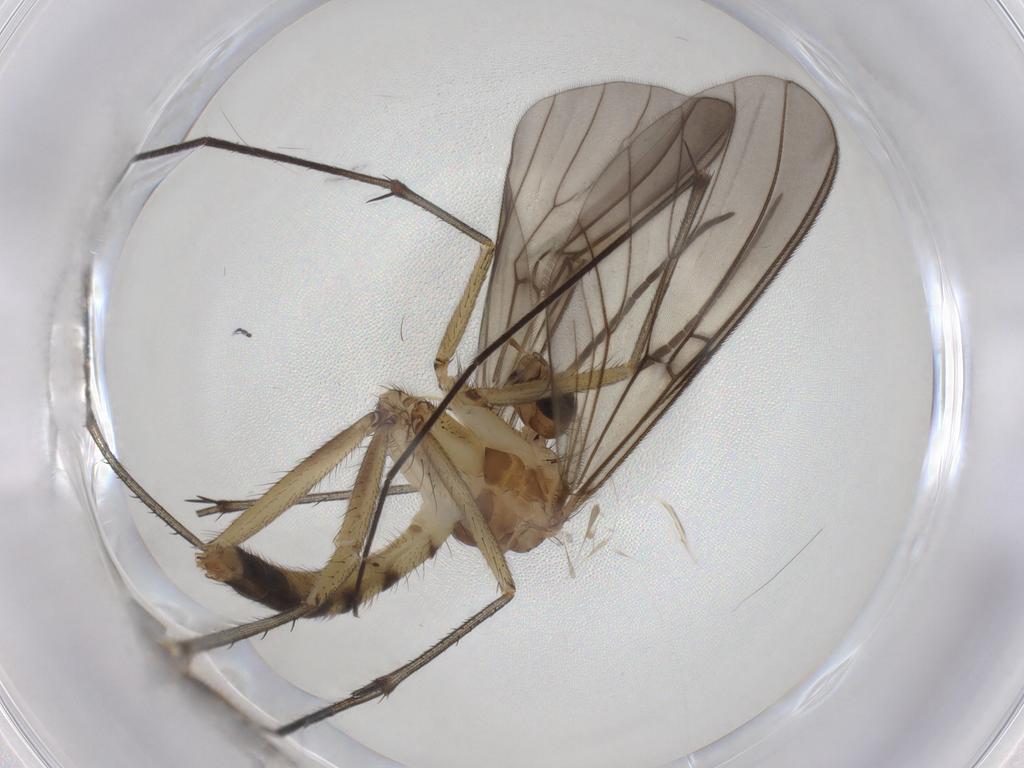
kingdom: Animalia
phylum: Arthropoda
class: Insecta
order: Diptera
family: Mycetophilidae
